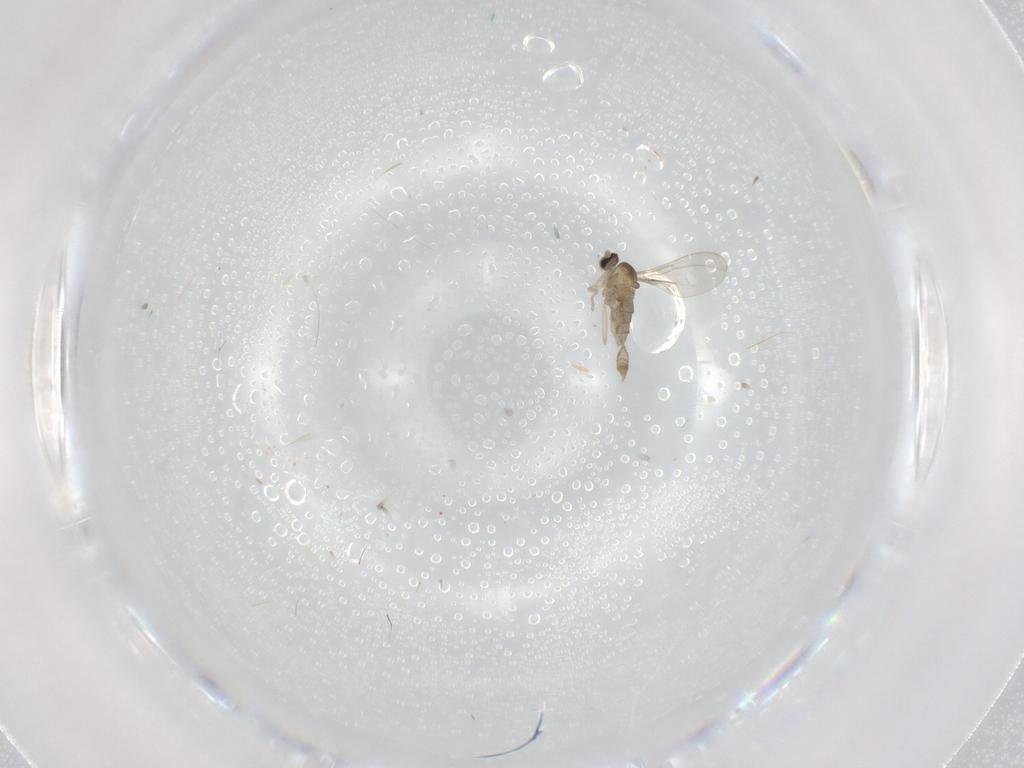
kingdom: Animalia
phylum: Arthropoda
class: Insecta
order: Diptera
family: Cecidomyiidae
